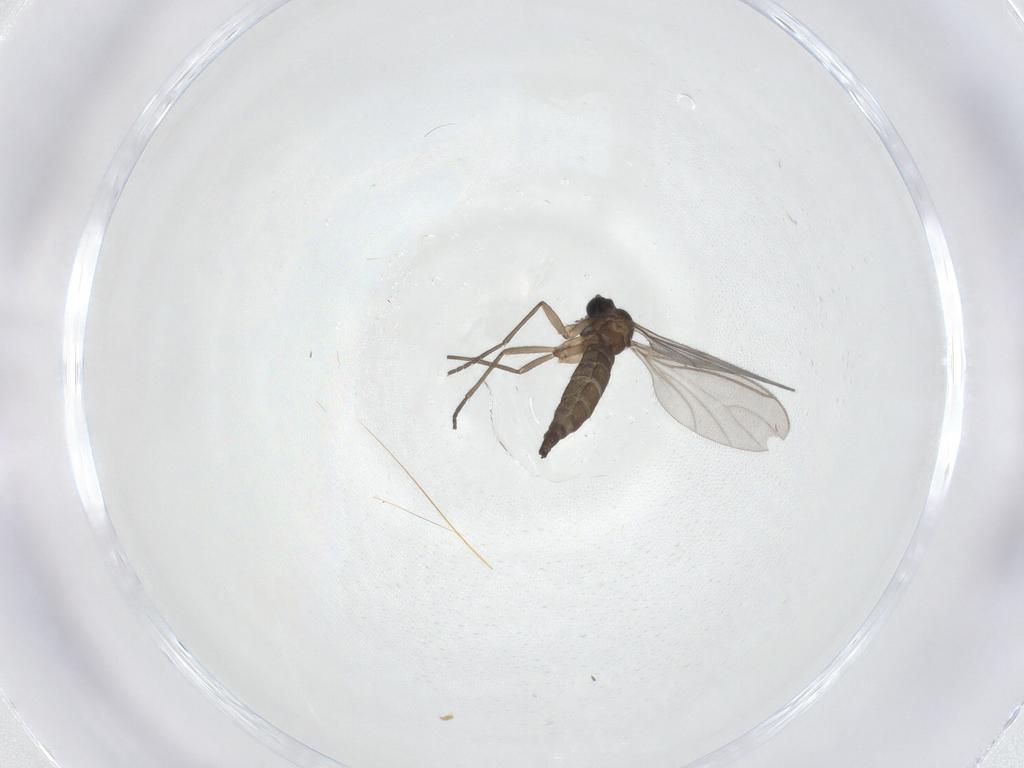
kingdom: Animalia
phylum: Arthropoda
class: Insecta
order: Diptera
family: Sciaridae
